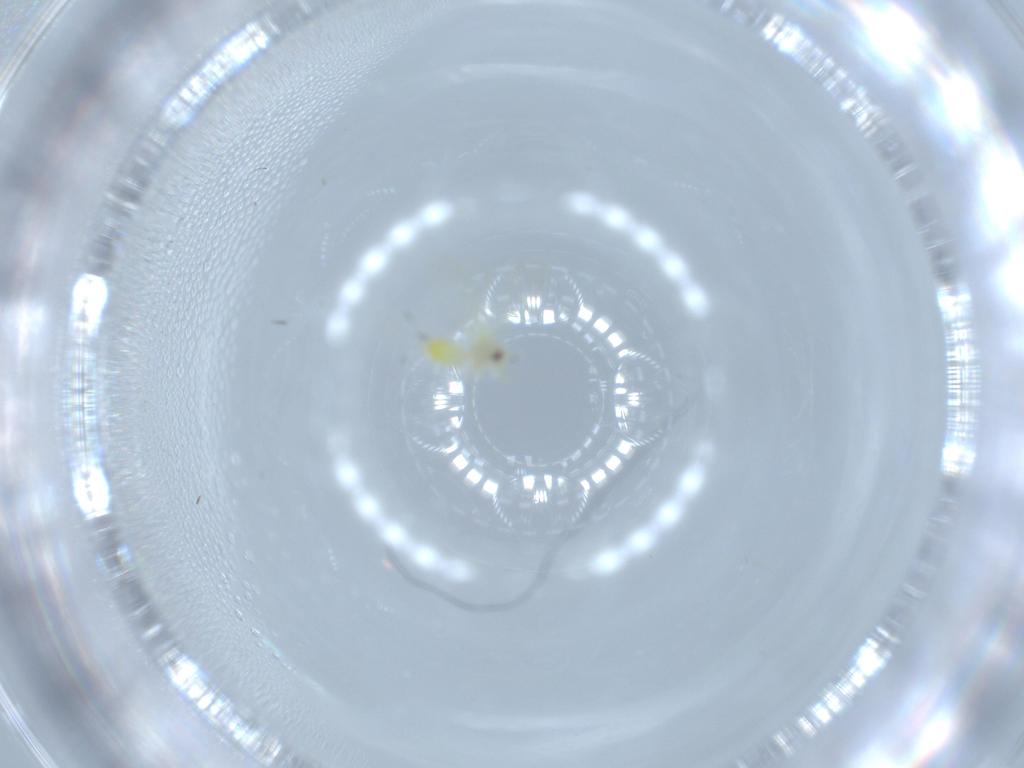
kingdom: Animalia
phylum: Arthropoda
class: Insecta
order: Hemiptera
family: Aleyrodidae
